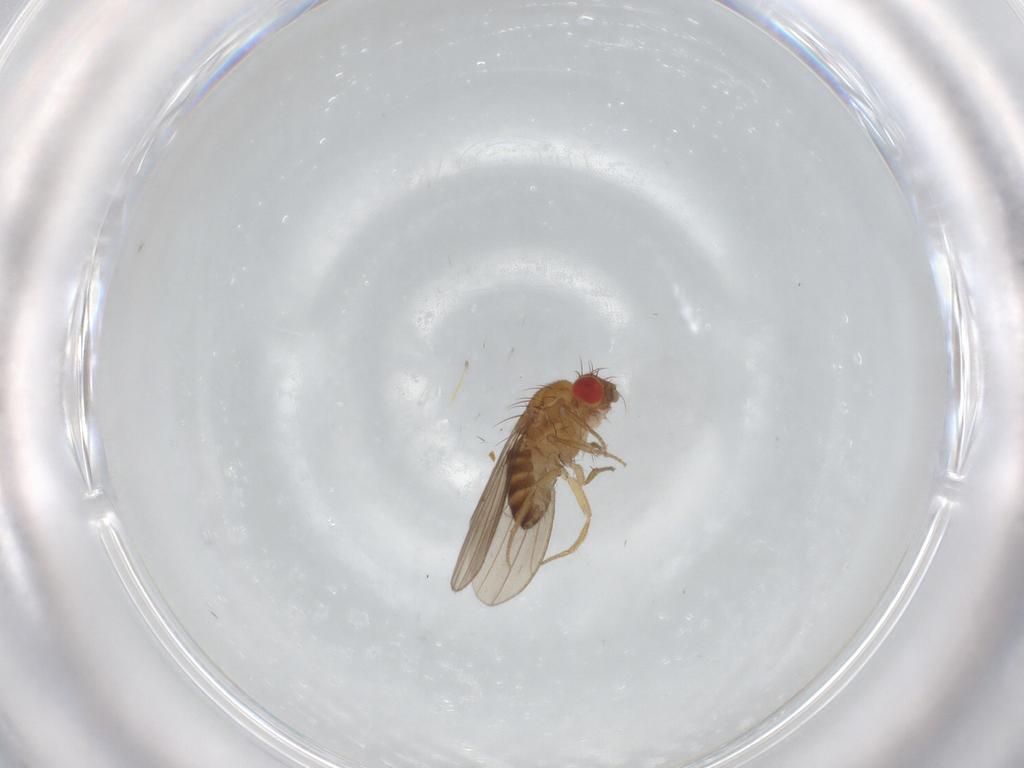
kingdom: Animalia
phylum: Arthropoda
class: Insecta
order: Diptera
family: Drosophilidae
